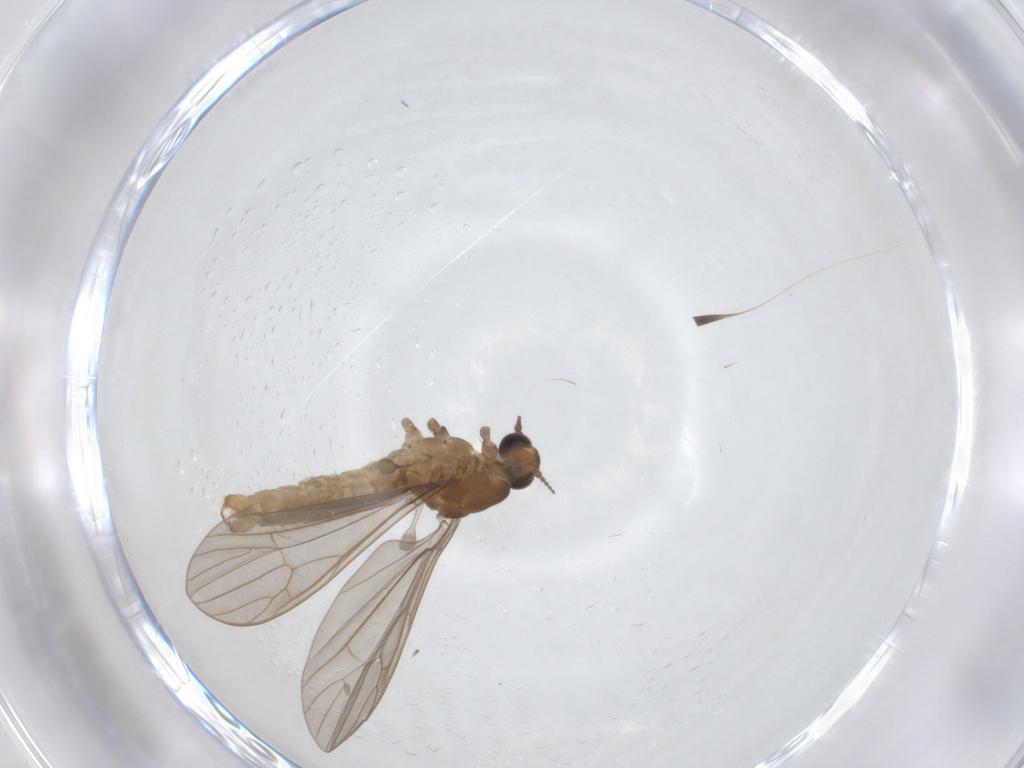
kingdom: Animalia
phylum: Arthropoda
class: Insecta
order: Diptera
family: Limoniidae
